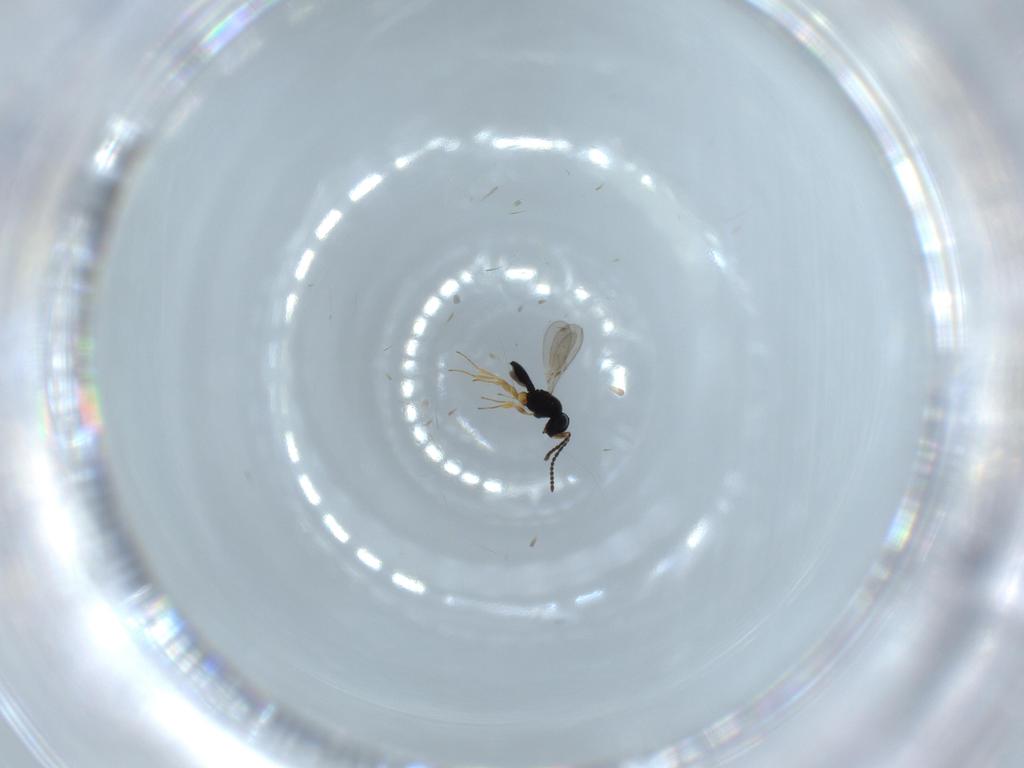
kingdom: Animalia
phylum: Arthropoda
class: Insecta
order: Hymenoptera
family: Scelionidae
